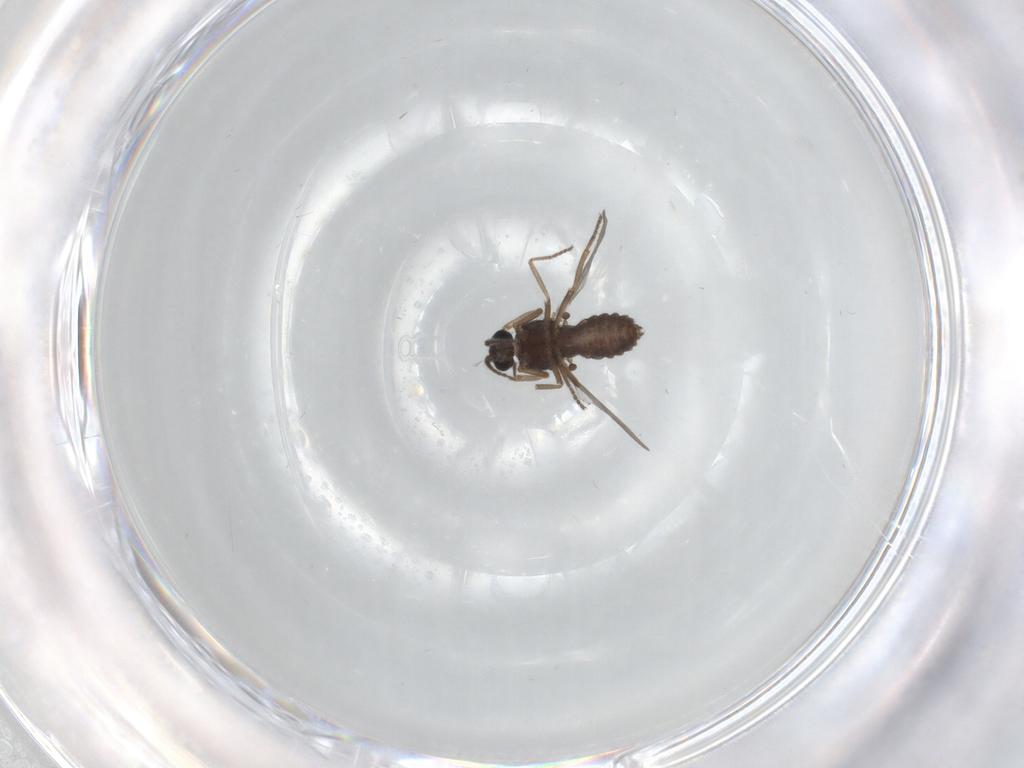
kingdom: Animalia
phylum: Arthropoda
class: Insecta
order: Diptera
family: Ceratopogonidae
